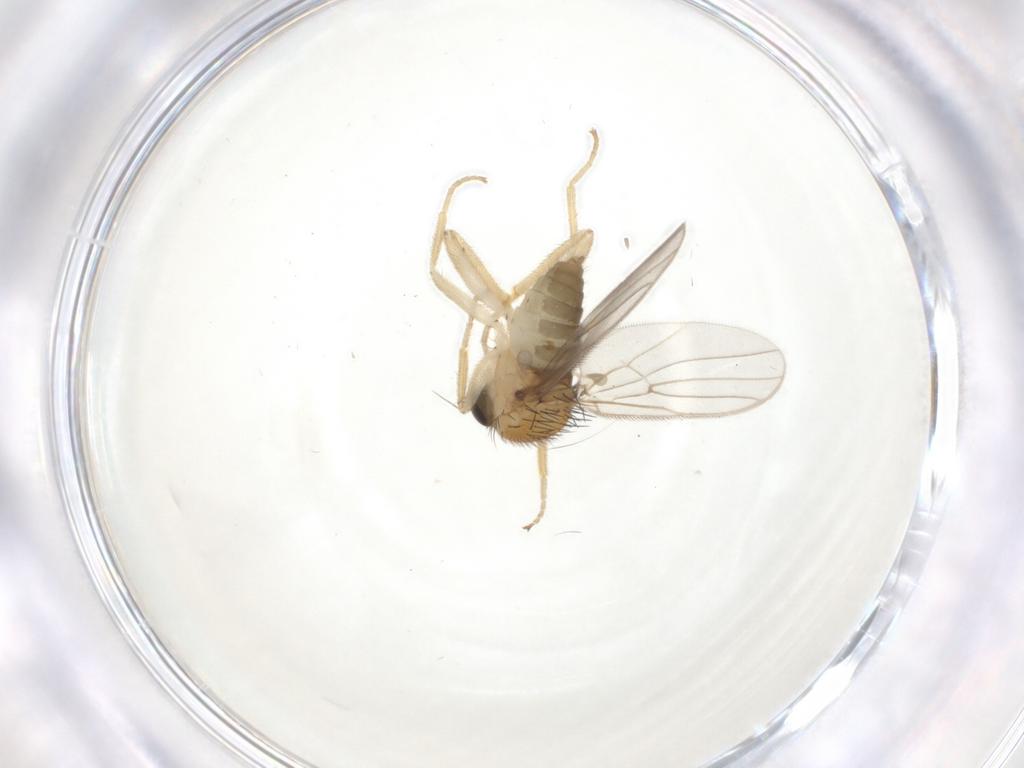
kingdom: Animalia
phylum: Arthropoda
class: Insecta
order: Diptera
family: Hybotidae
